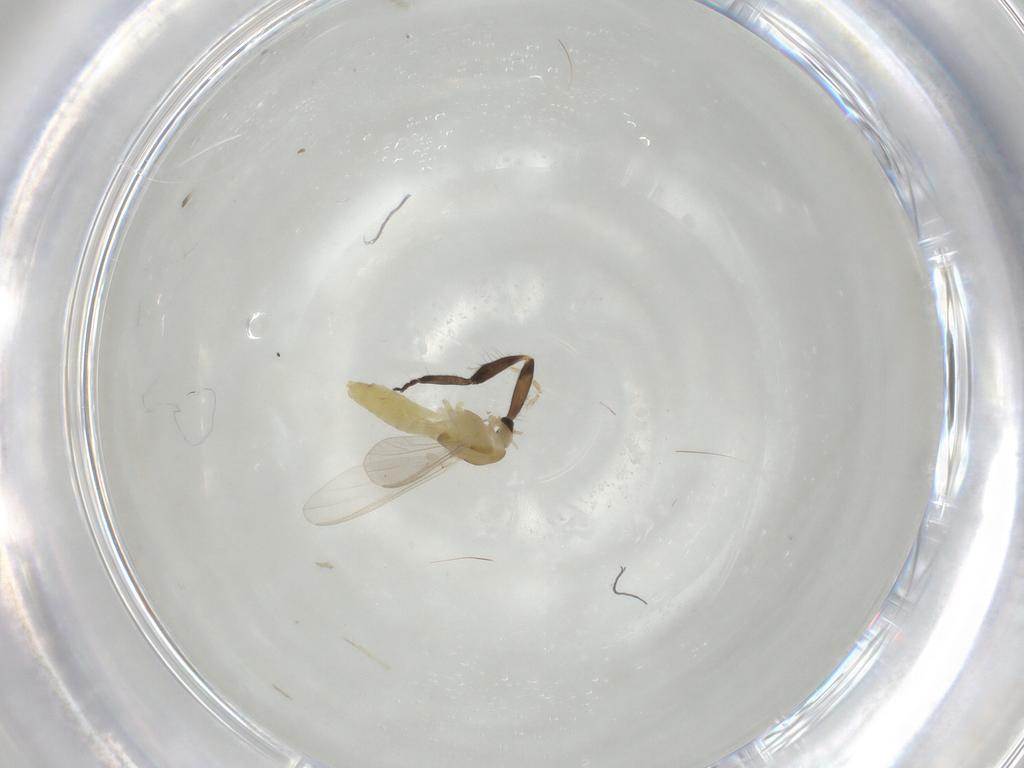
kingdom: Animalia
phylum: Arthropoda
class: Insecta
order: Diptera
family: Chironomidae
